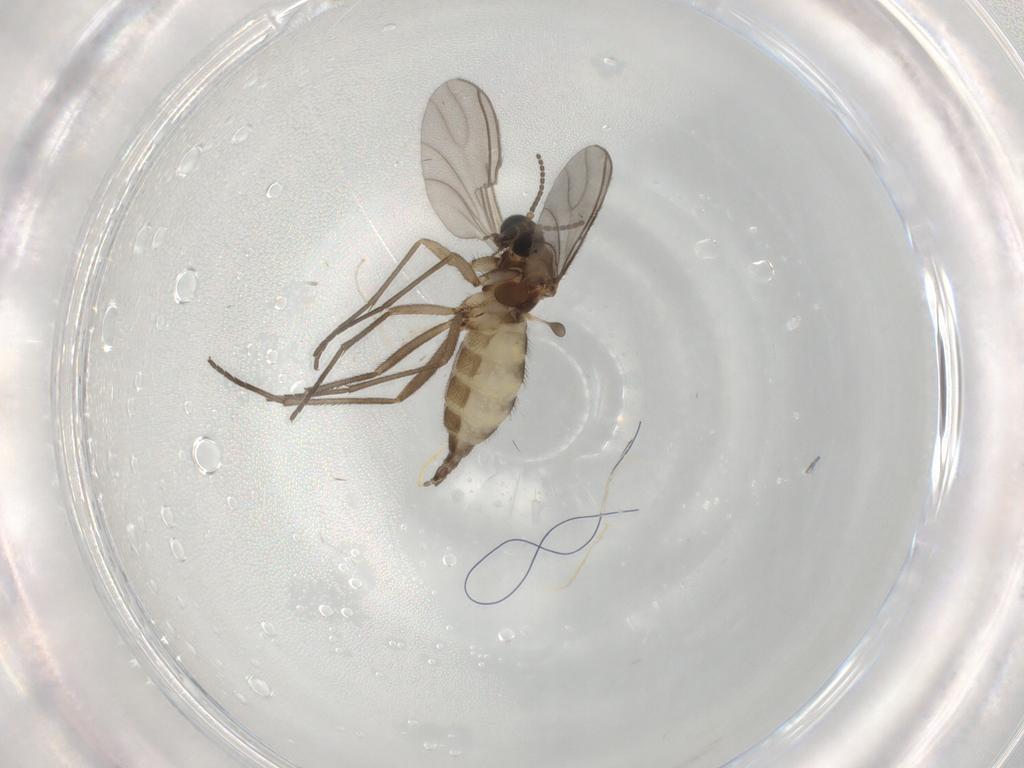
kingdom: Animalia
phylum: Arthropoda
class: Insecta
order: Diptera
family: Sciaridae
